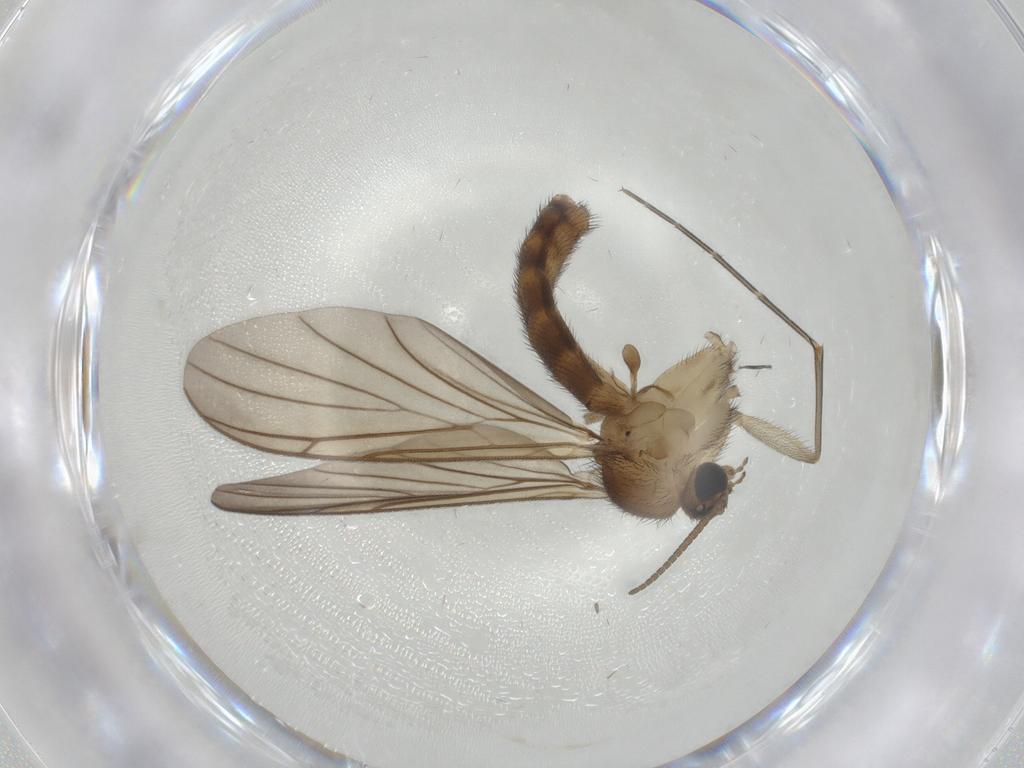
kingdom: Animalia
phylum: Arthropoda
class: Insecta
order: Diptera
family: Keroplatidae
